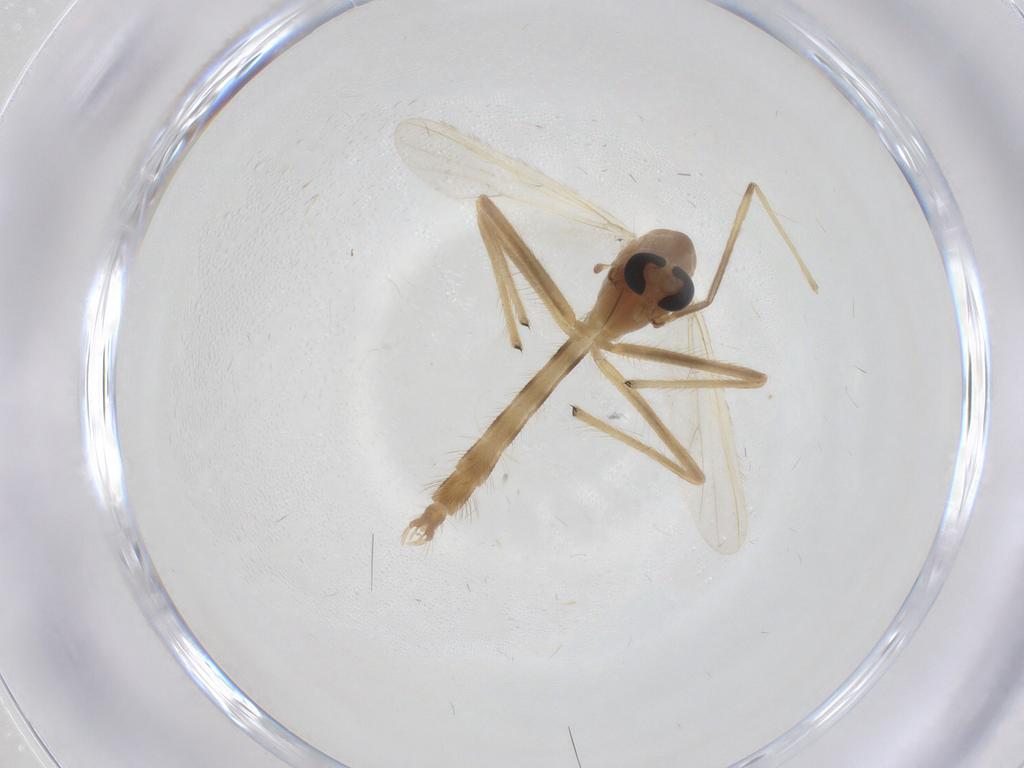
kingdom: Animalia
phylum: Arthropoda
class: Insecta
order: Diptera
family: Chironomidae
